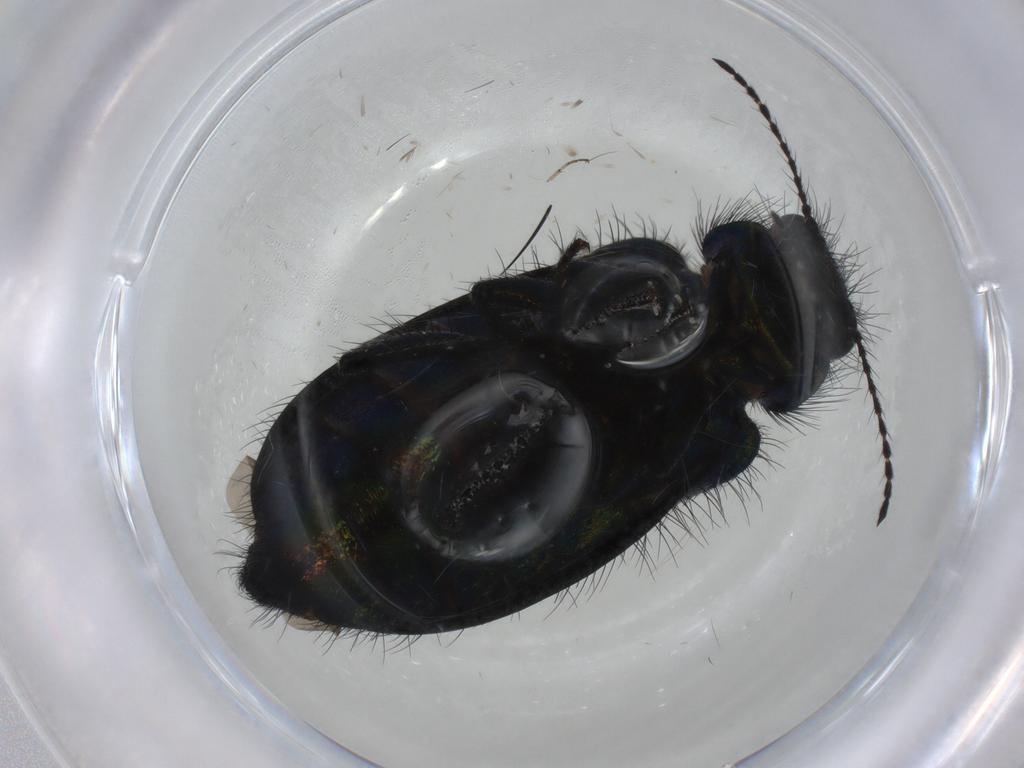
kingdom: Animalia
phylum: Arthropoda
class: Insecta
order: Coleoptera
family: Melyridae
